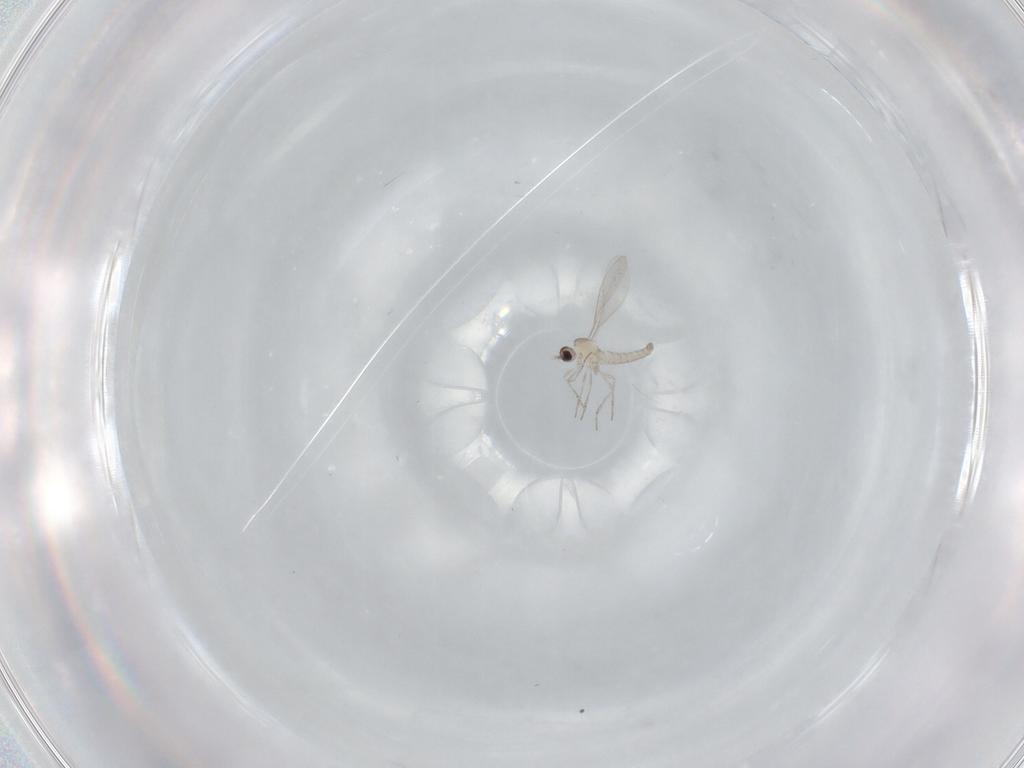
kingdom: Animalia
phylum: Arthropoda
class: Insecta
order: Diptera
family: Cecidomyiidae
